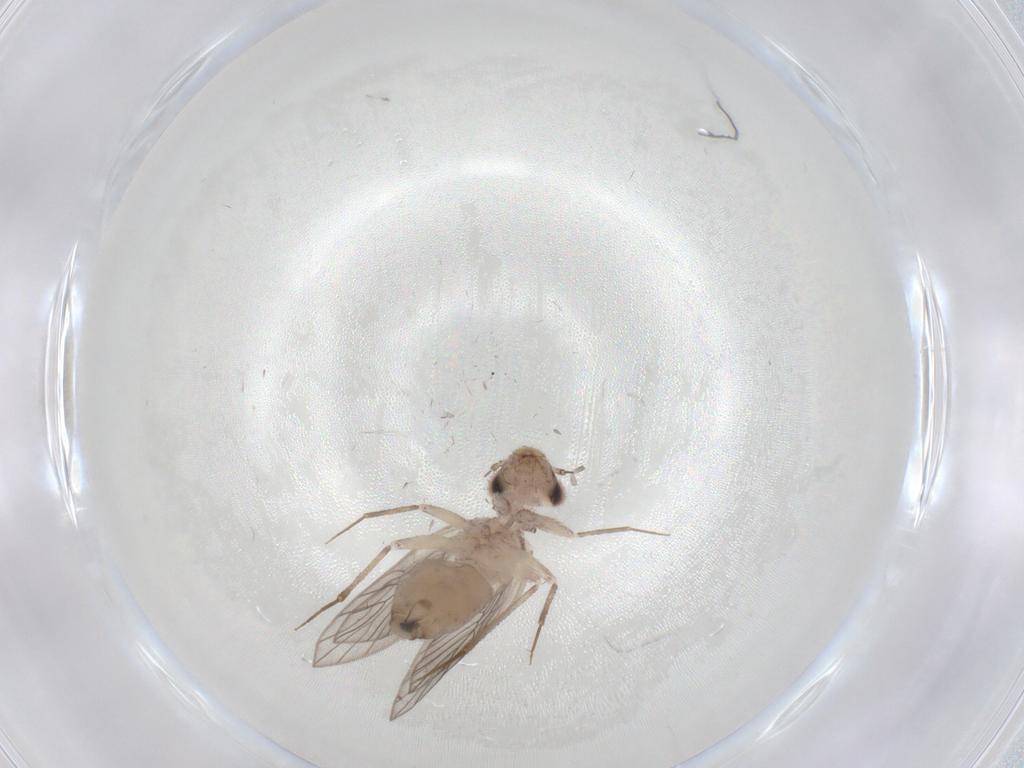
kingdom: Animalia
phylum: Arthropoda
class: Insecta
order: Psocodea
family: Lepidopsocidae
